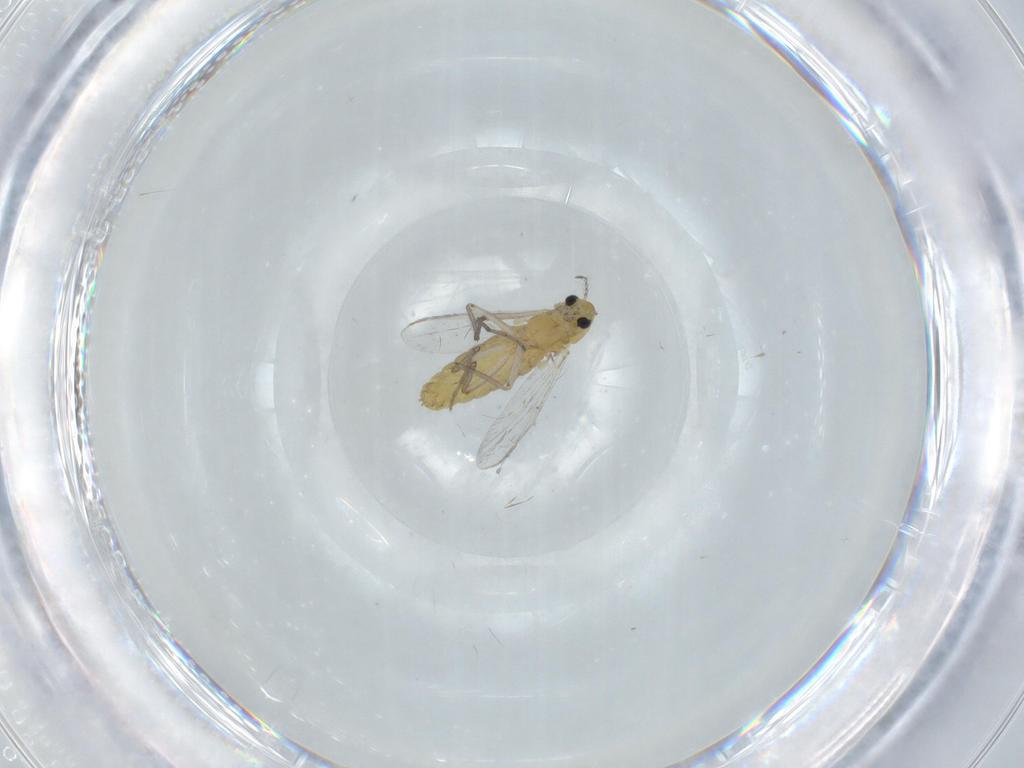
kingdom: Animalia
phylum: Arthropoda
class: Insecta
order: Diptera
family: Chironomidae
